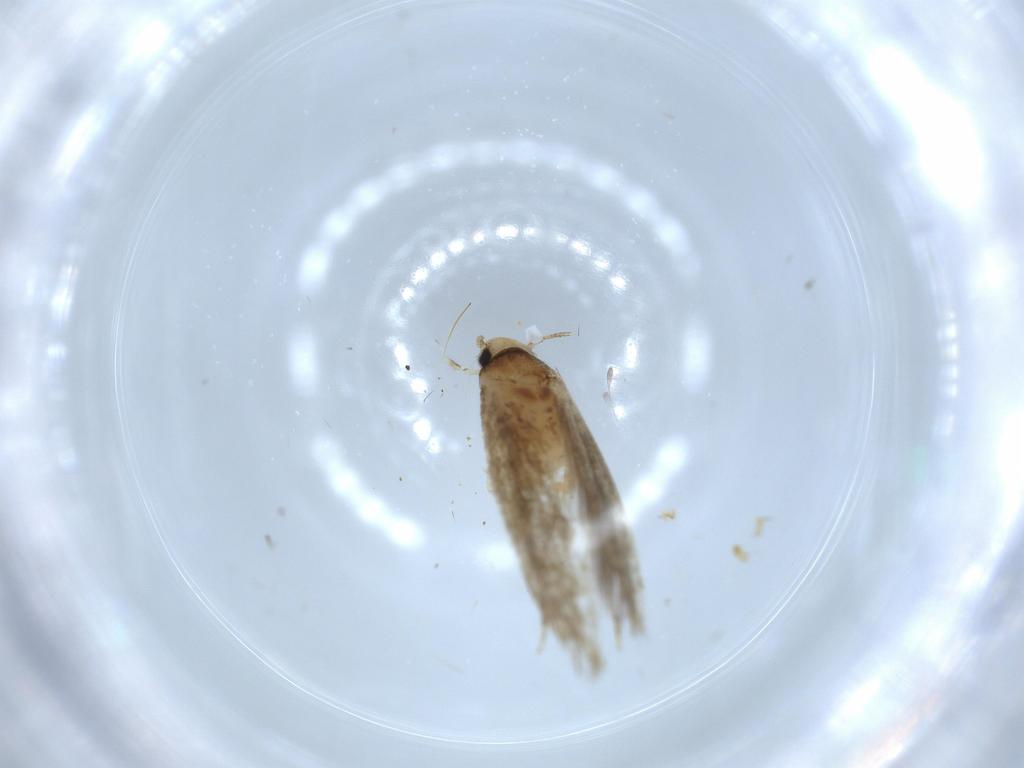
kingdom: Animalia
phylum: Arthropoda
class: Insecta
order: Lepidoptera
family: Tineidae
